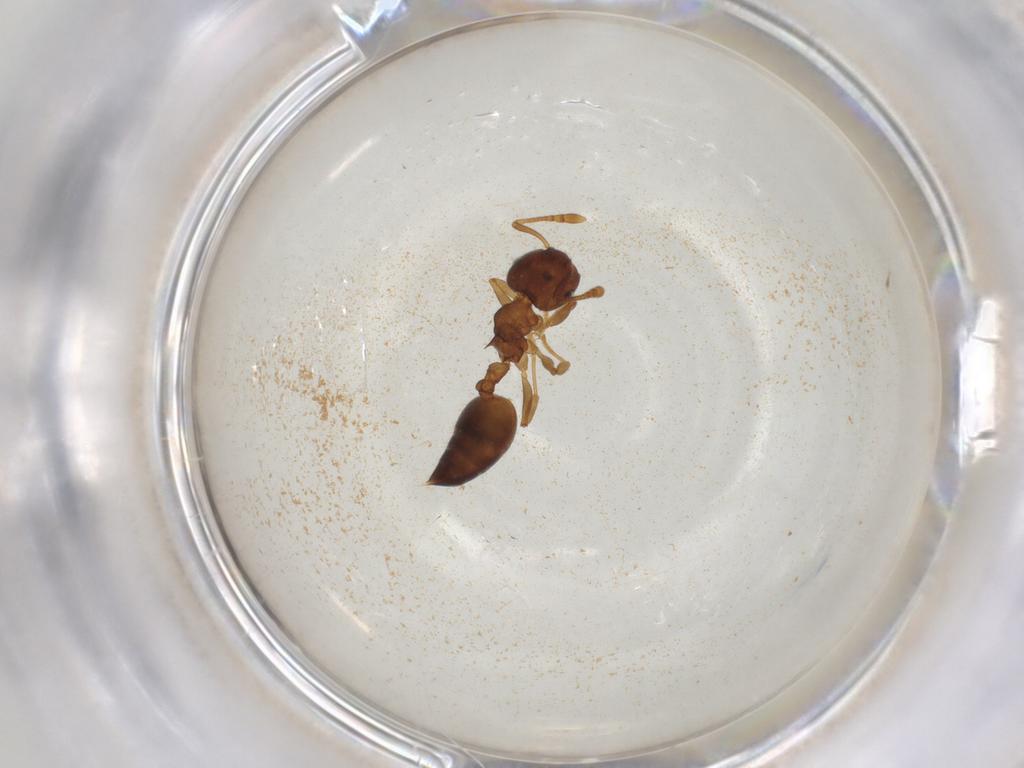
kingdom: Animalia
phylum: Arthropoda
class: Insecta
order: Hymenoptera
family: Formicidae
